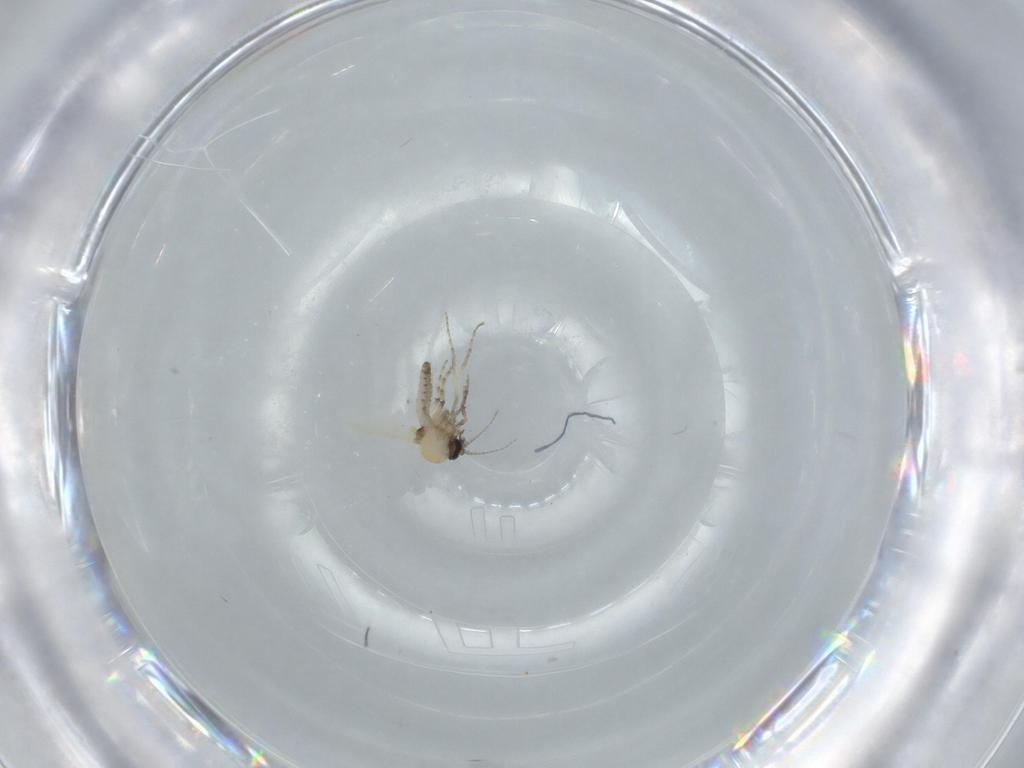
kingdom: Animalia
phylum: Arthropoda
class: Insecta
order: Diptera
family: Ceratopogonidae
